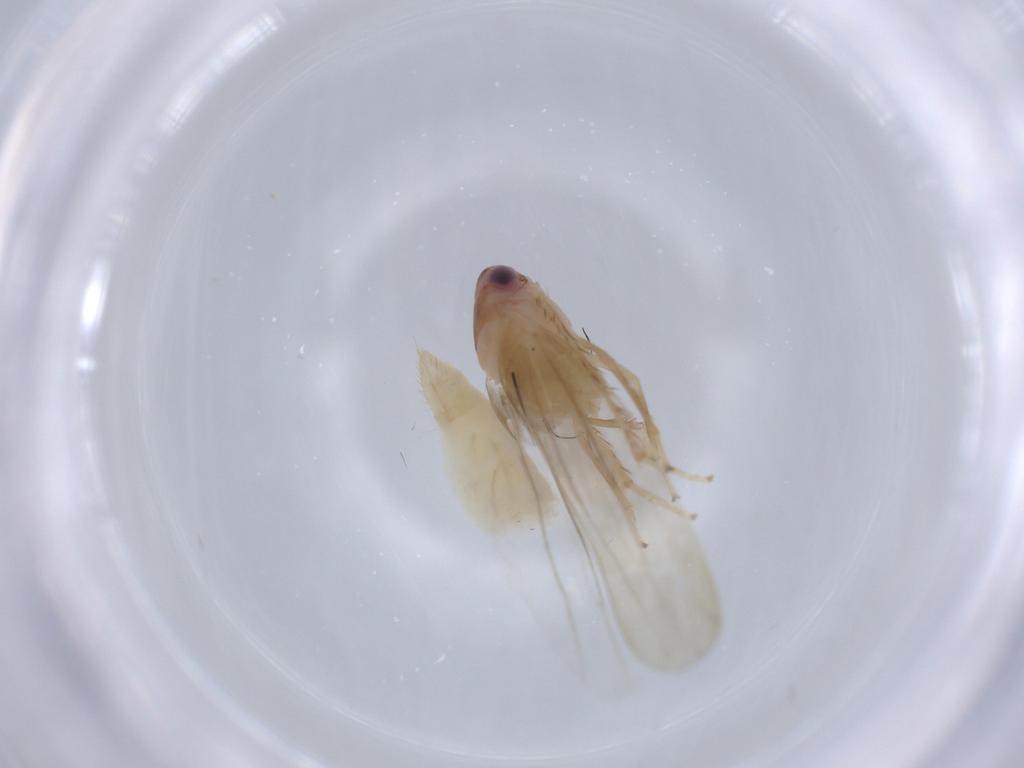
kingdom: Animalia
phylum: Arthropoda
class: Insecta
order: Hemiptera
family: Cicadellidae
